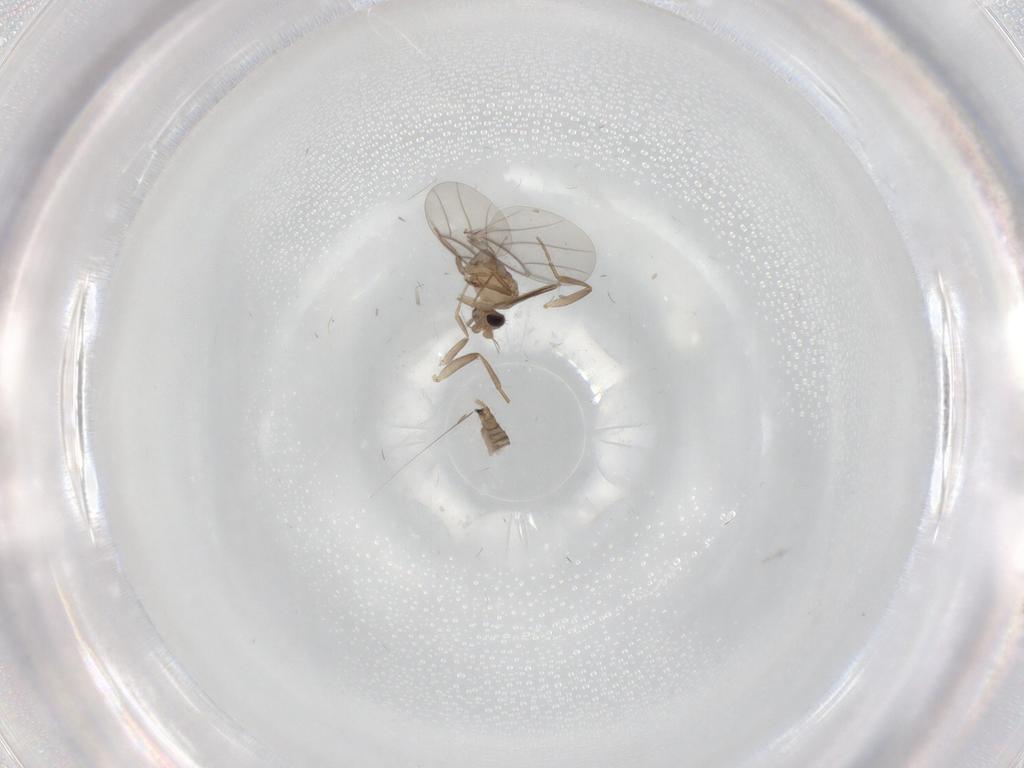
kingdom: Animalia
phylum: Arthropoda
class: Insecta
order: Diptera
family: Ceratopogonidae
